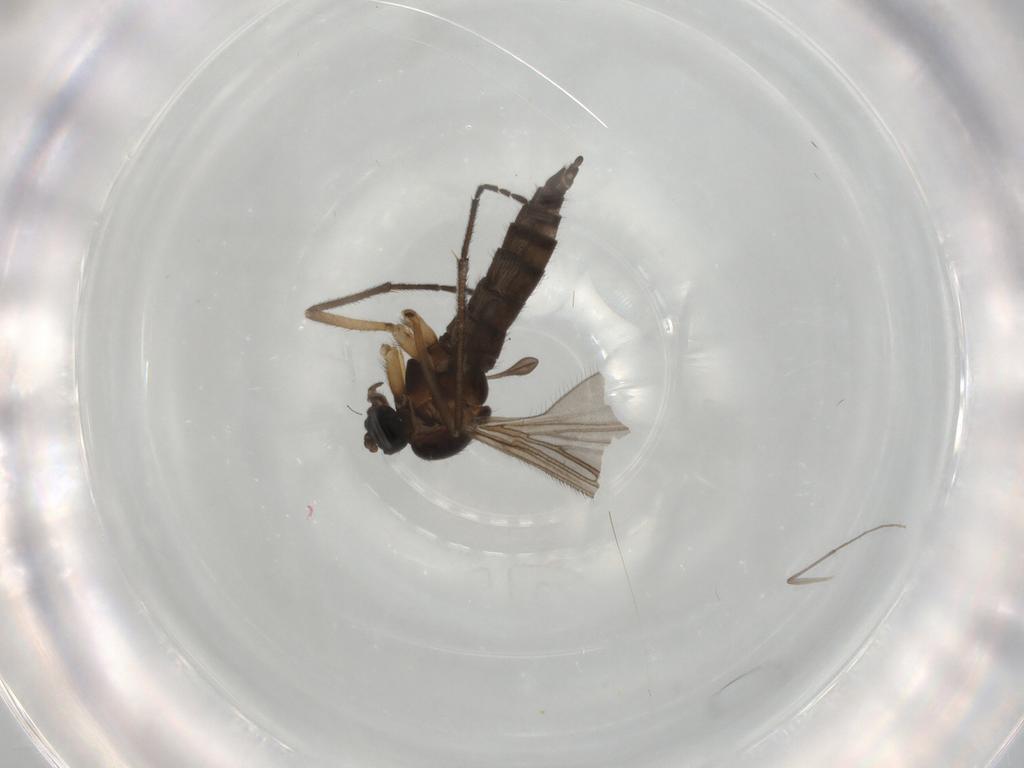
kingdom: Animalia
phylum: Arthropoda
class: Insecta
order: Diptera
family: Sciaridae
